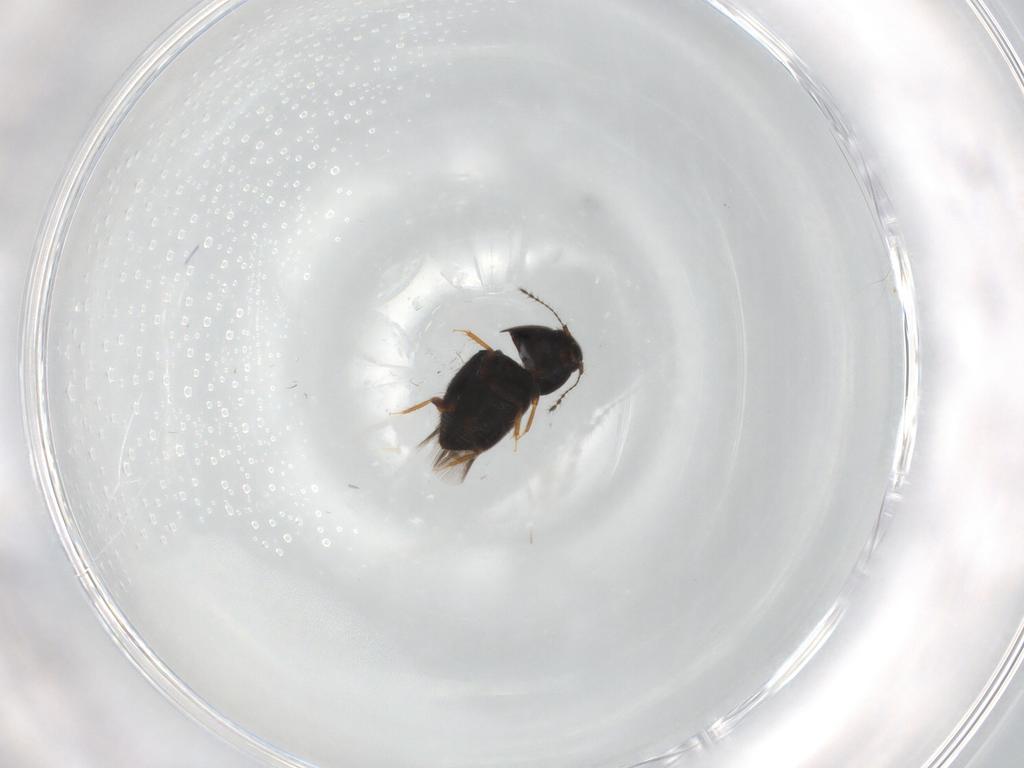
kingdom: Animalia
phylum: Arthropoda
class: Insecta
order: Coleoptera
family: Ptiliidae
